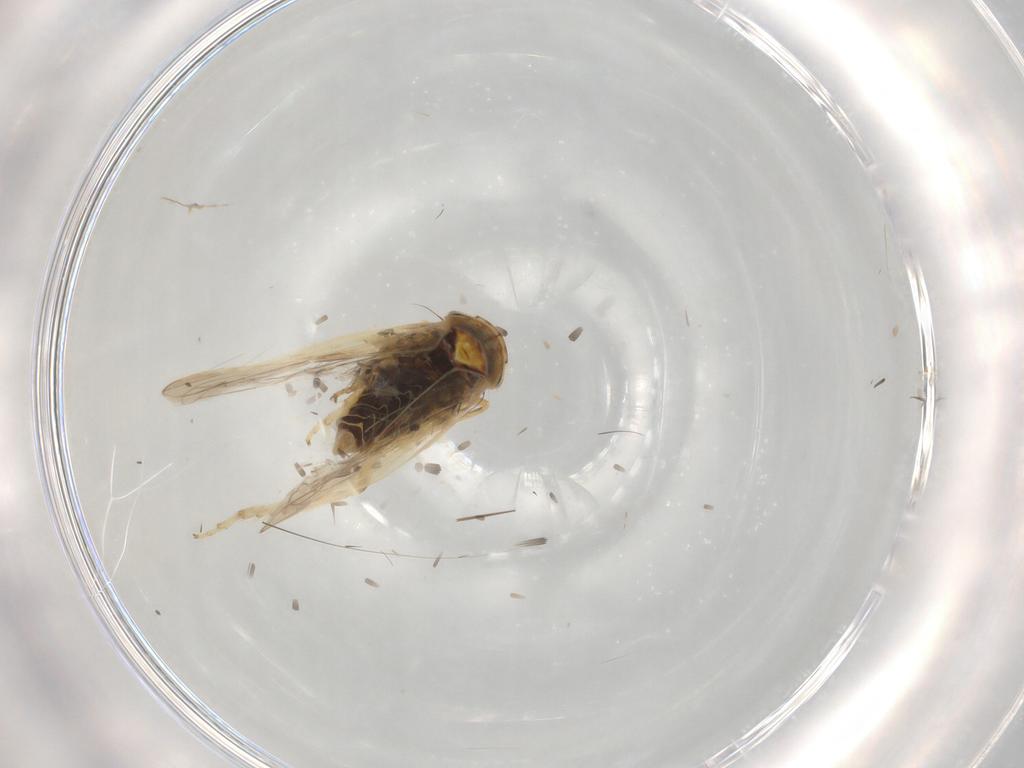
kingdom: Animalia
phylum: Arthropoda
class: Insecta
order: Hemiptera
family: Cicadellidae
